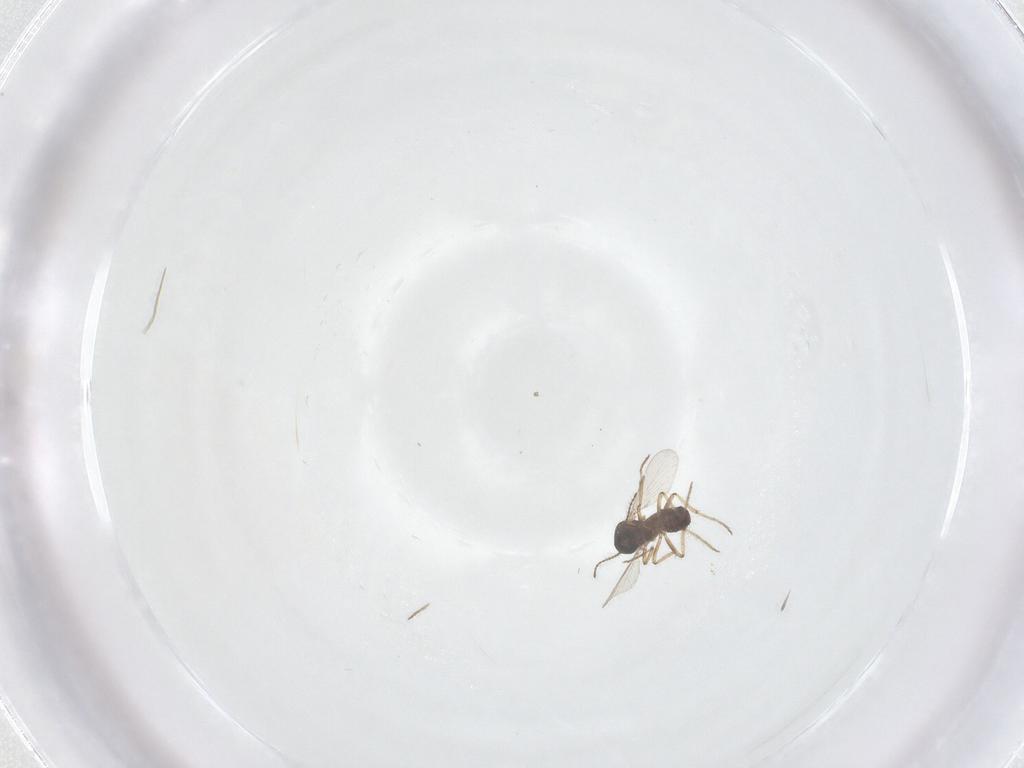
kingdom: Animalia
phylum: Arthropoda
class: Insecta
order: Diptera
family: Ceratopogonidae
